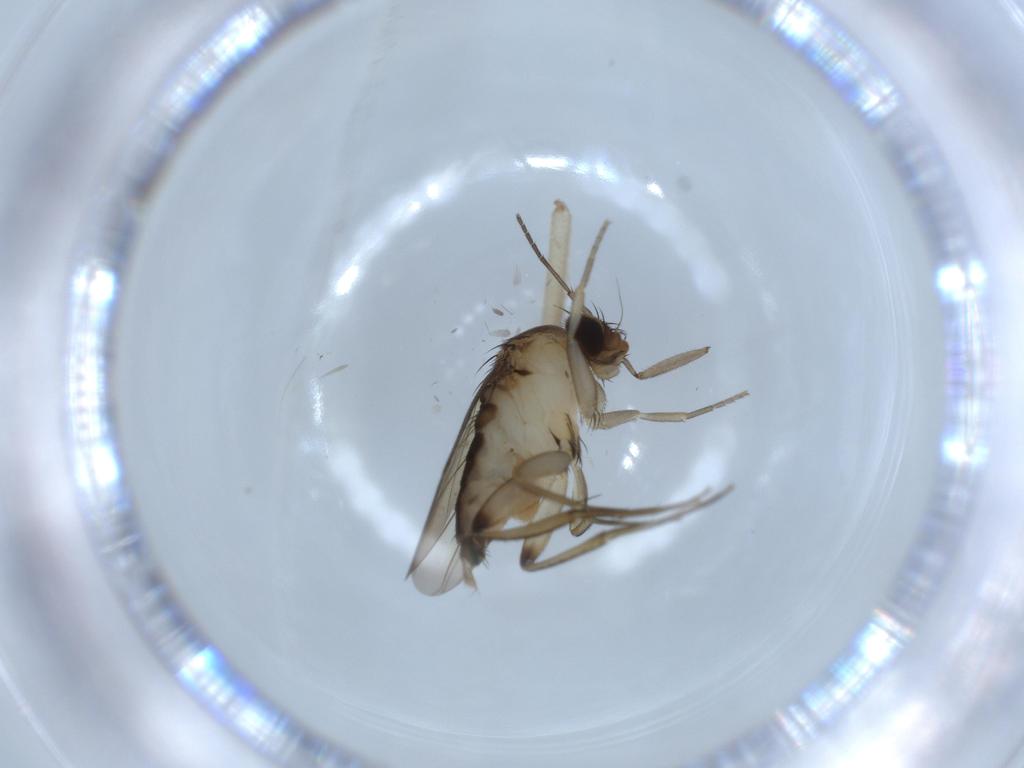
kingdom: Animalia
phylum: Arthropoda
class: Insecta
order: Diptera
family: Phoridae
